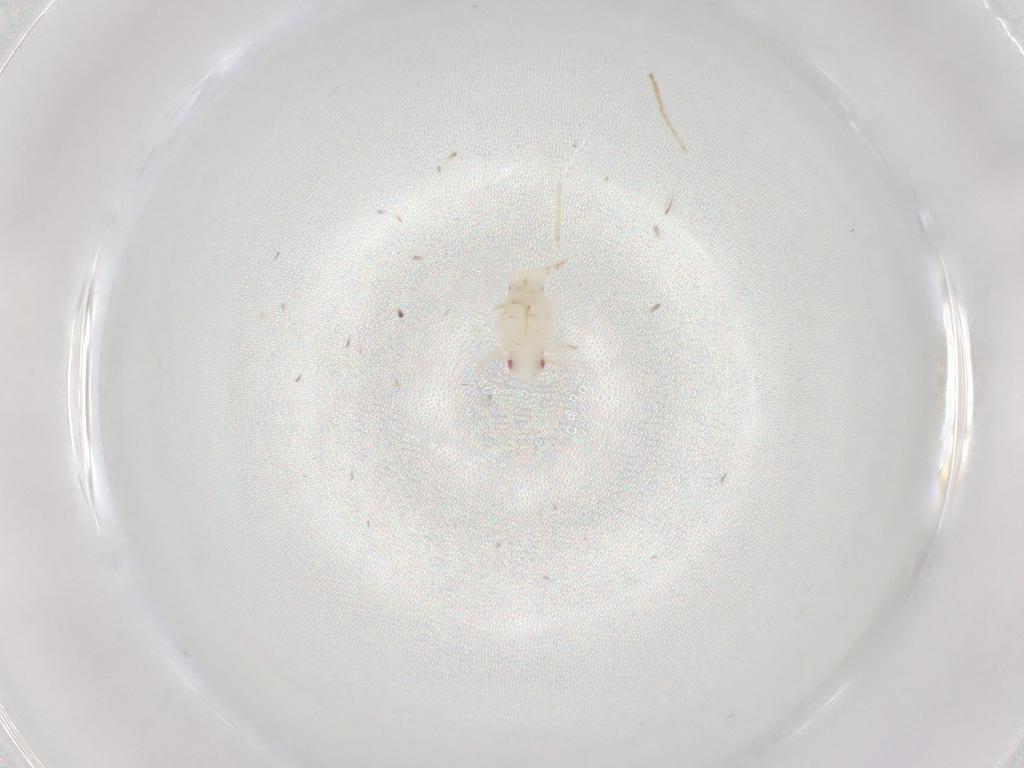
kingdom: Animalia
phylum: Arthropoda
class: Insecta
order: Hemiptera
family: Flatidae
